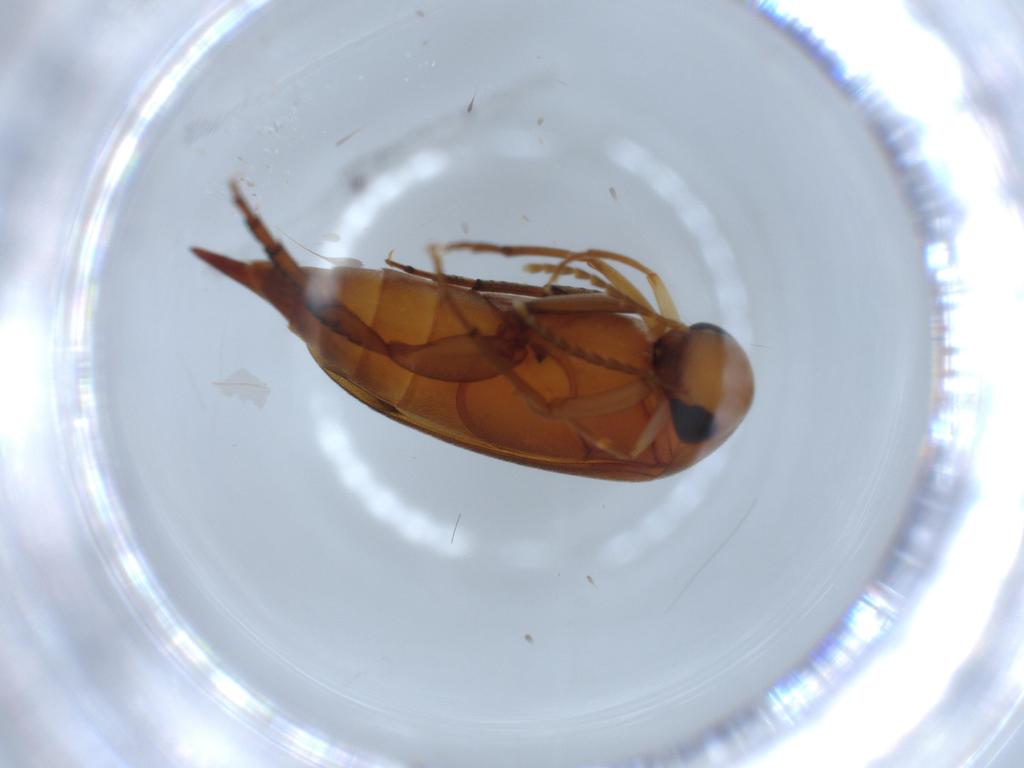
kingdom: Animalia
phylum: Arthropoda
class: Insecta
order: Coleoptera
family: Mordellidae
